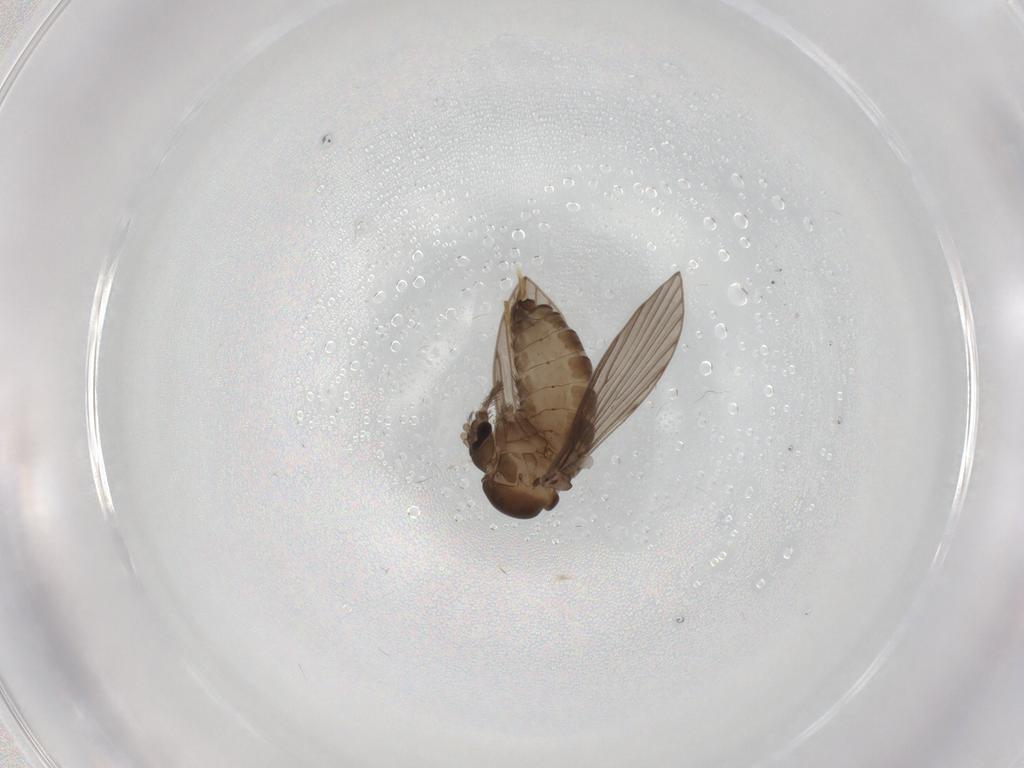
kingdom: Animalia
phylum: Arthropoda
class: Insecta
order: Diptera
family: Psychodidae
